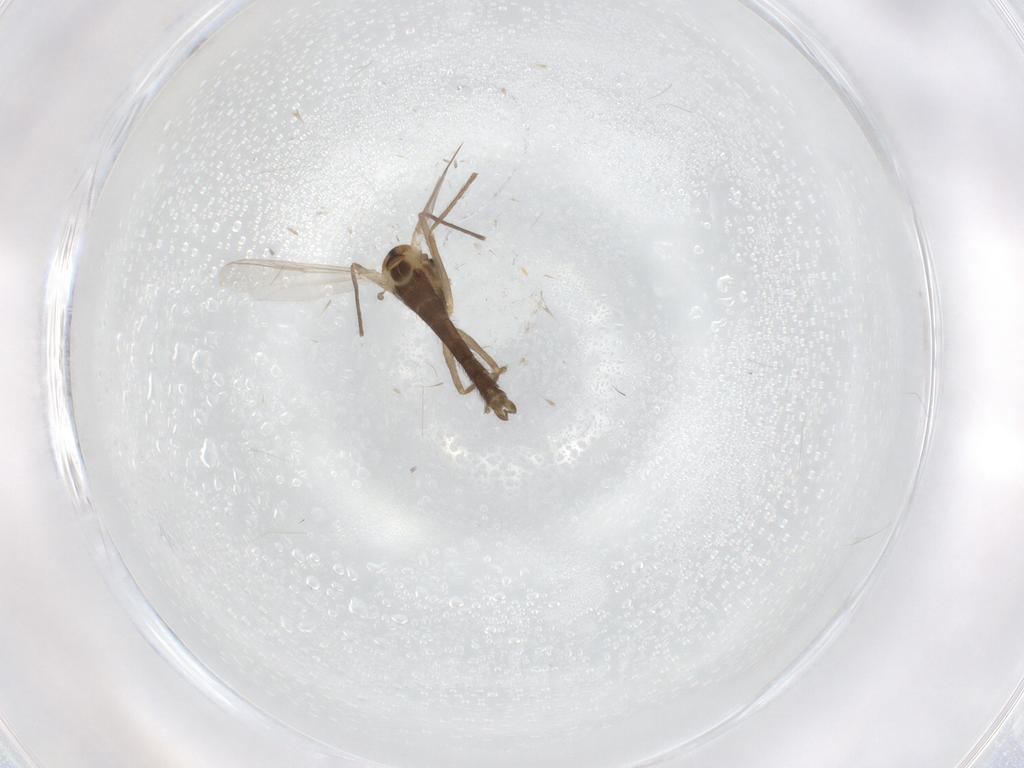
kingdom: Animalia
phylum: Arthropoda
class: Insecta
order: Diptera
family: Chironomidae
